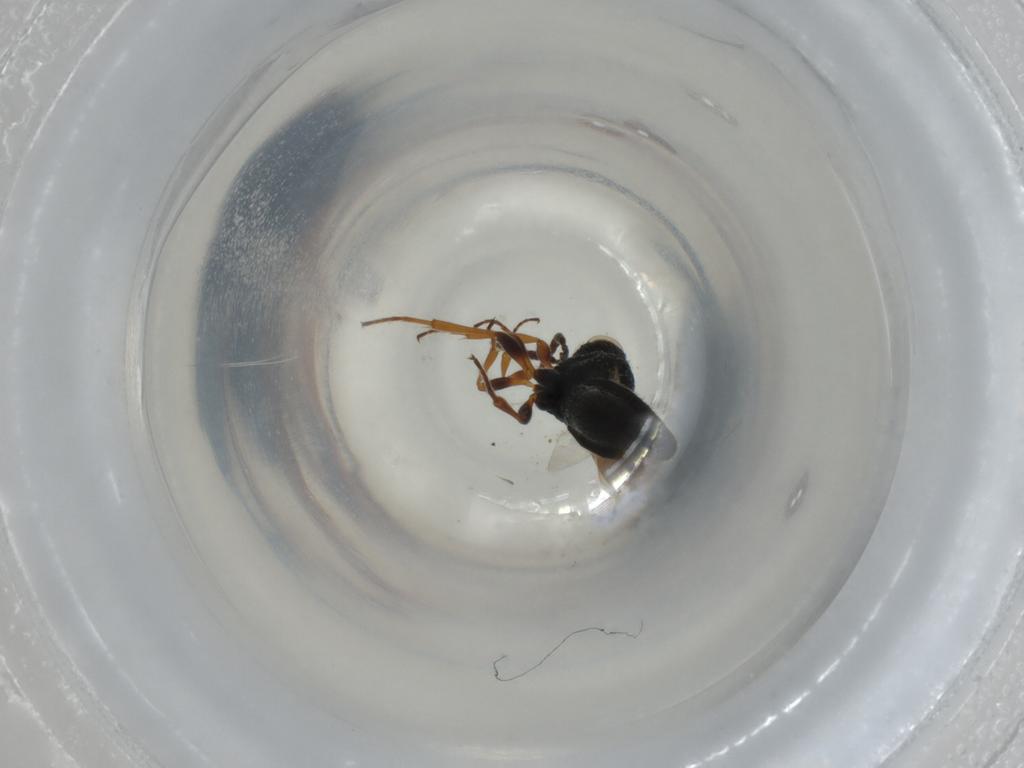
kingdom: Animalia
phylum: Arthropoda
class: Insecta
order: Hymenoptera
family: Scelionidae
